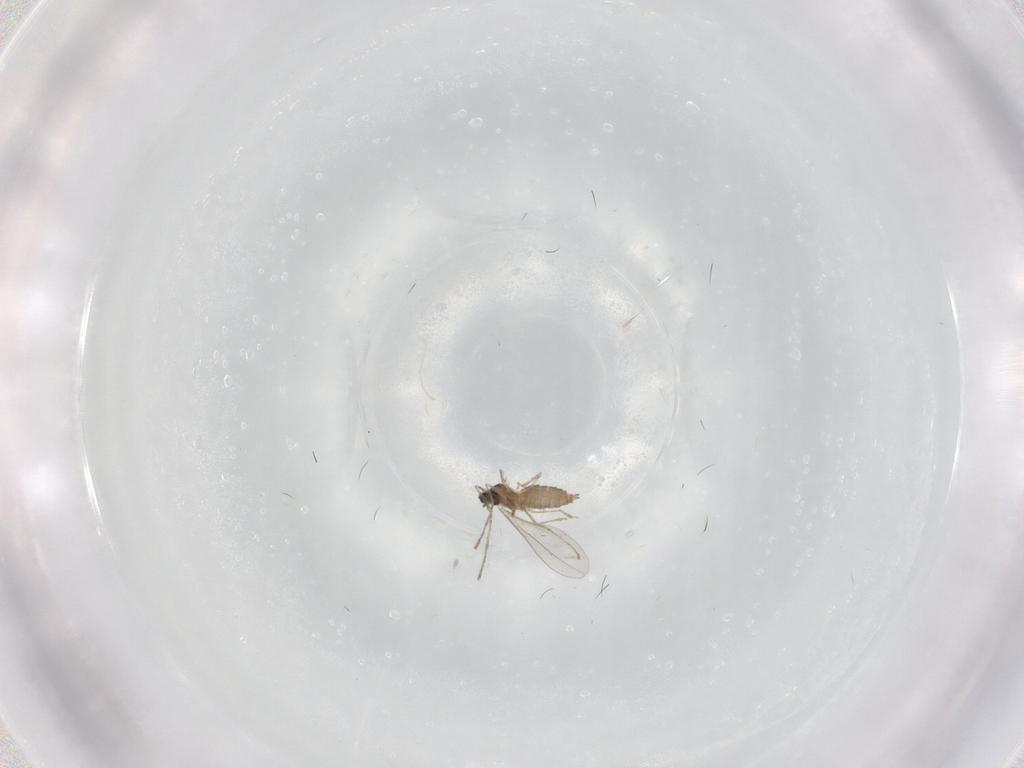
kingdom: Animalia
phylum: Arthropoda
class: Insecta
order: Diptera
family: Cecidomyiidae
